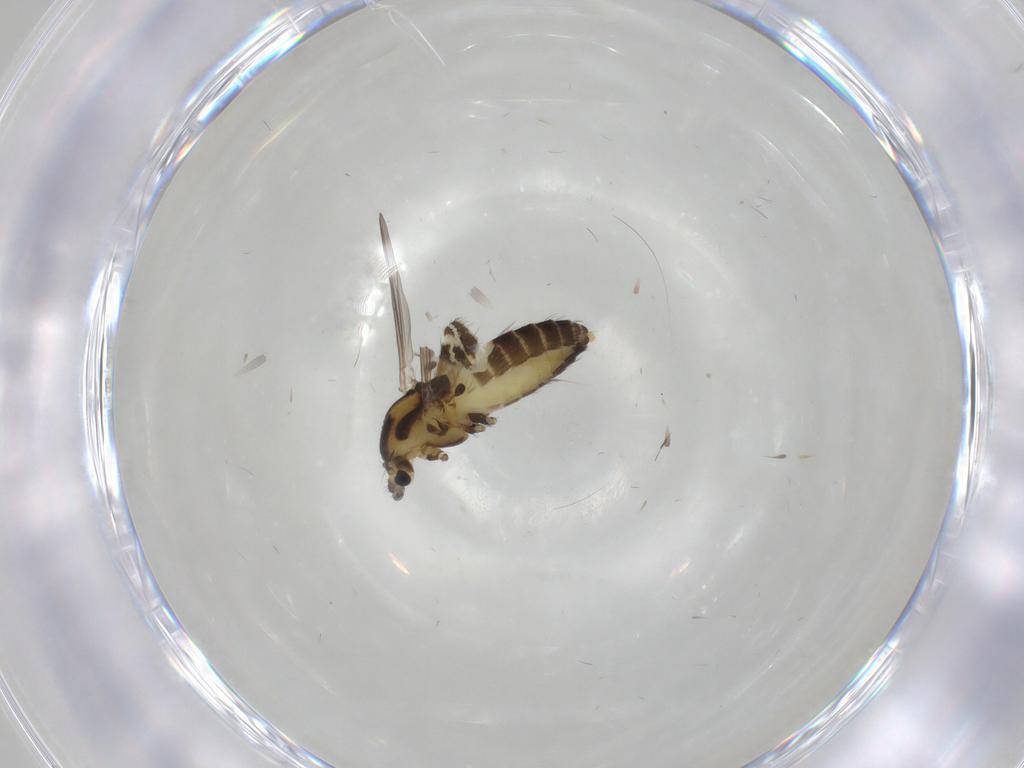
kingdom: Animalia
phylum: Arthropoda
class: Insecta
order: Diptera
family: Chironomidae
